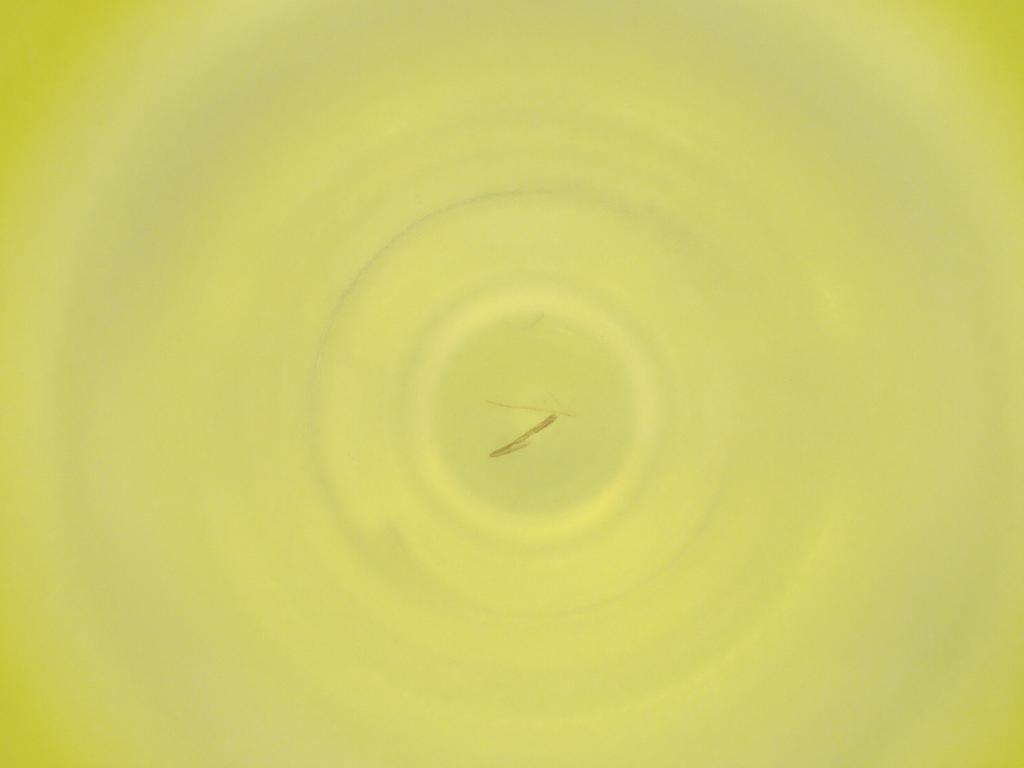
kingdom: Animalia
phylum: Arthropoda
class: Insecta
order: Diptera
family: Cecidomyiidae
